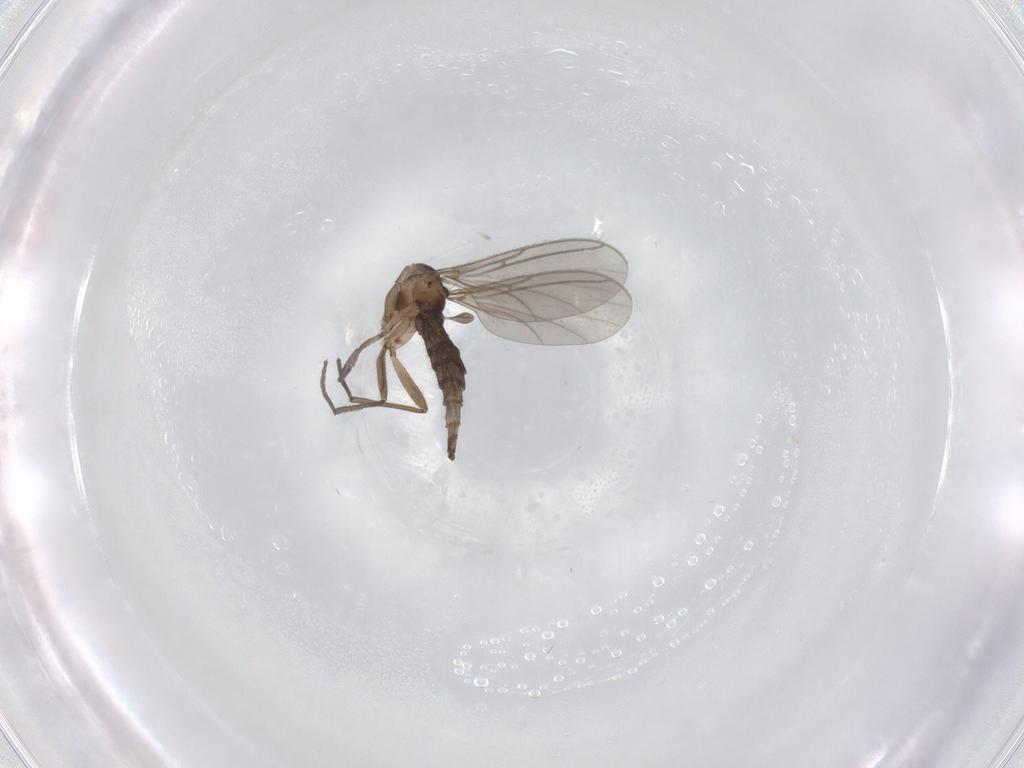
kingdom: Animalia
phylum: Arthropoda
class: Insecta
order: Diptera
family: Sciaridae
